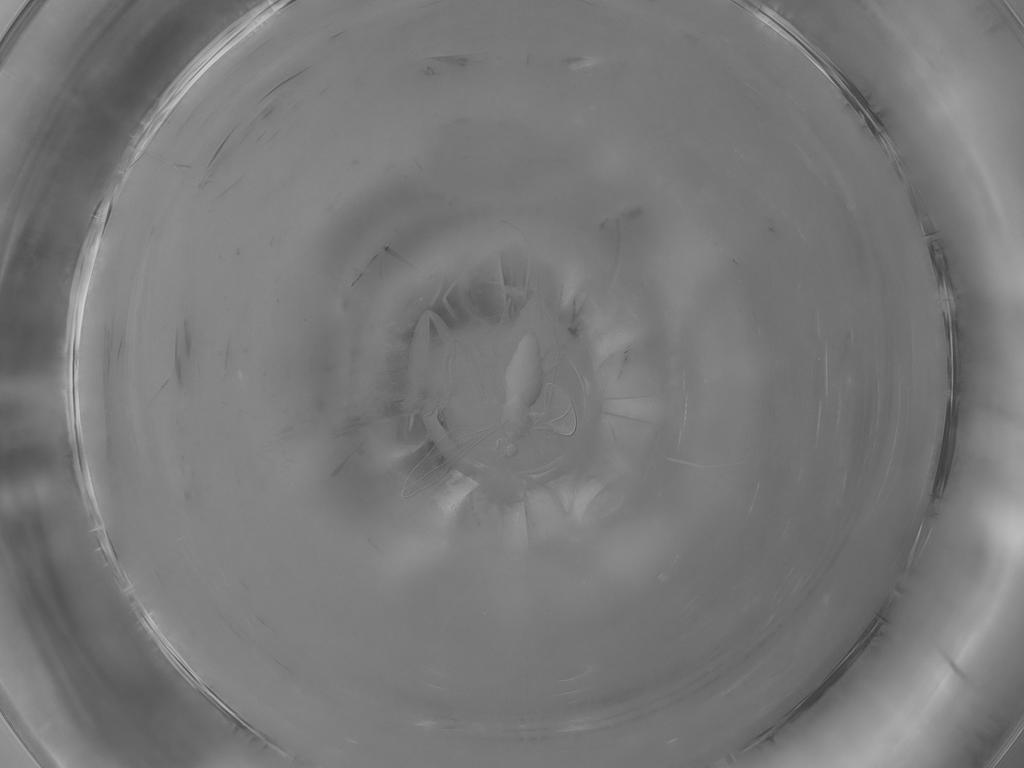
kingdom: Animalia
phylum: Arthropoda
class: Insecta
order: Diptera
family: Cecidomyiidae
